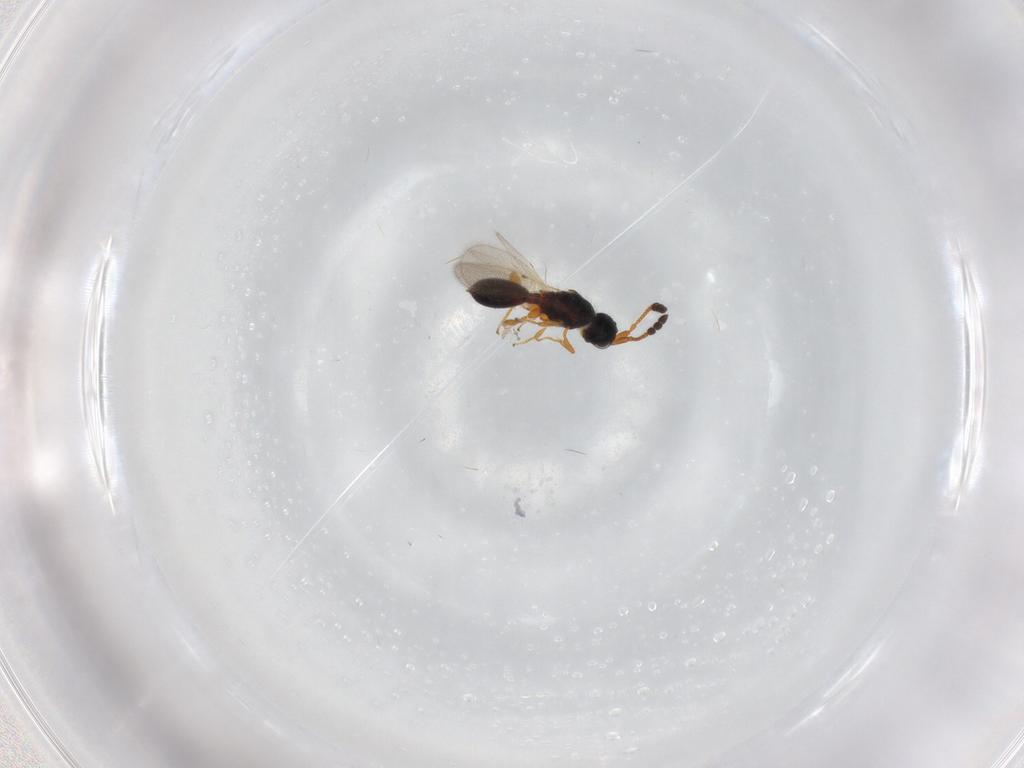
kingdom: Animalia
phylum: Arthropoda
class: Insecta
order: Hymenoptera
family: Diapriidae
